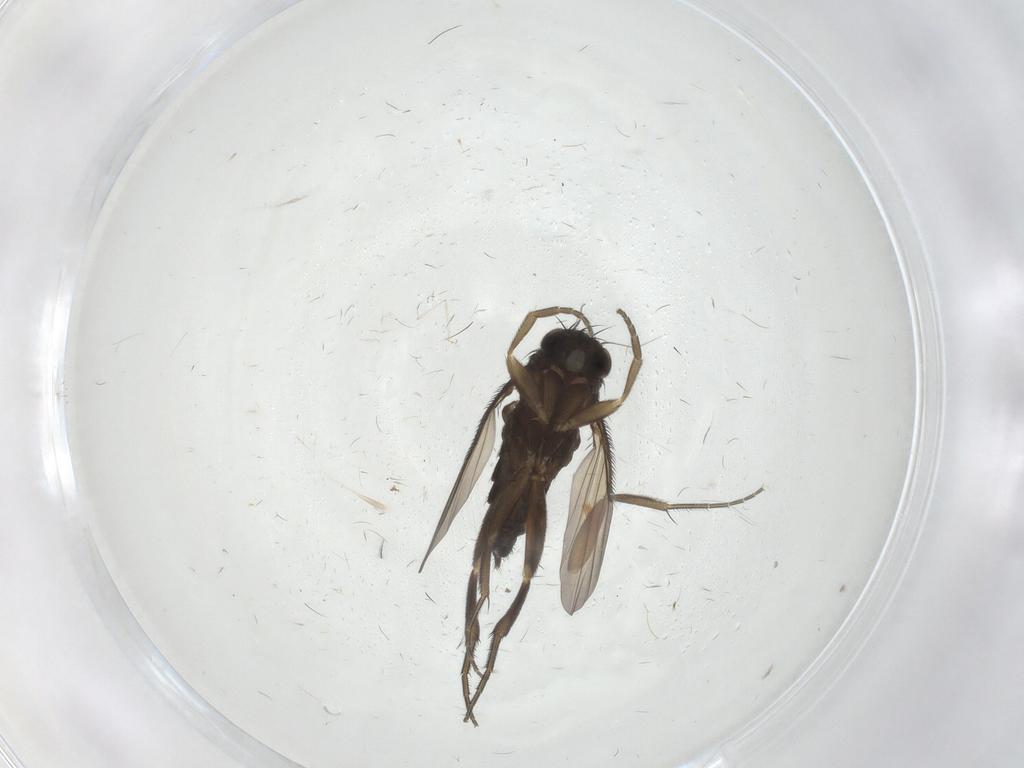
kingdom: Animalia
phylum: Arthropoda
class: Insecta
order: Diptera
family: Phoridae
